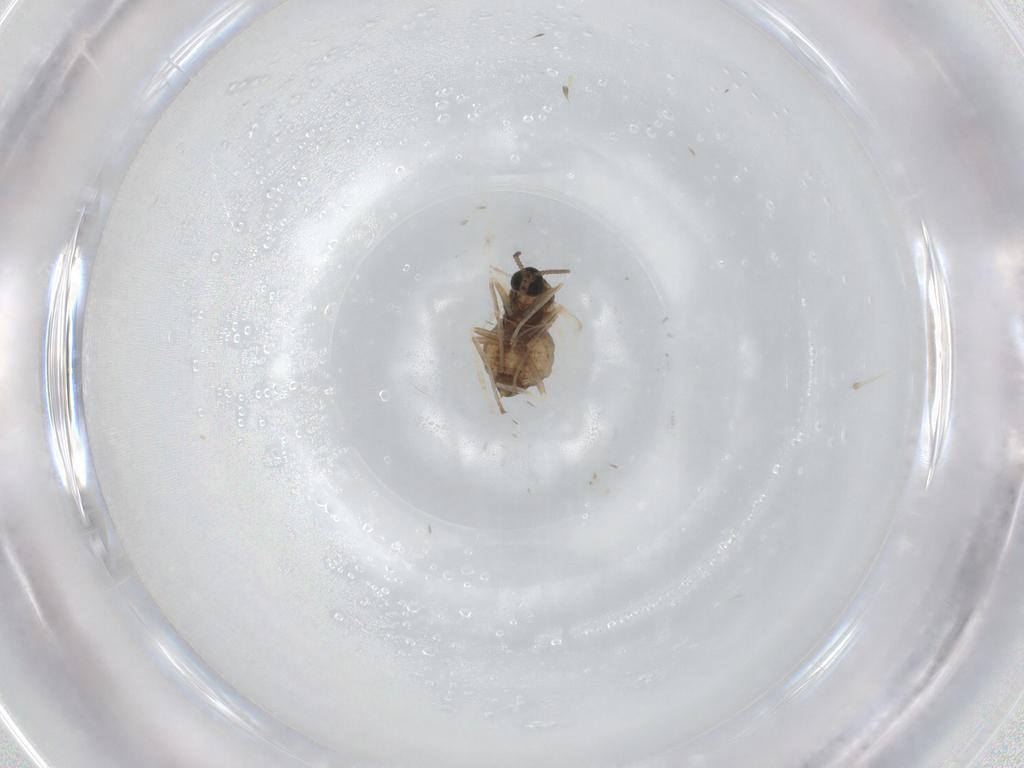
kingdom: Animalia
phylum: Arthropoda
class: Insecta
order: Diptera
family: Cecidomyiidae
